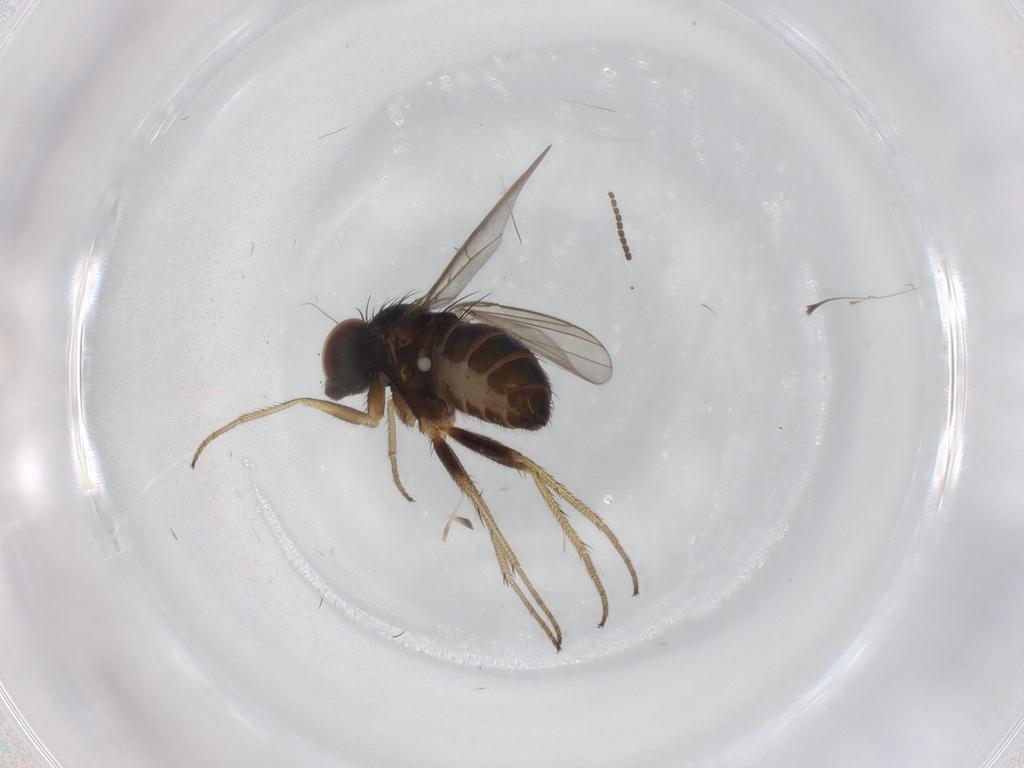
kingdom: Animalia
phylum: Arthropoda
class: Insecta
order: Diptera
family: Dolichopodidae
